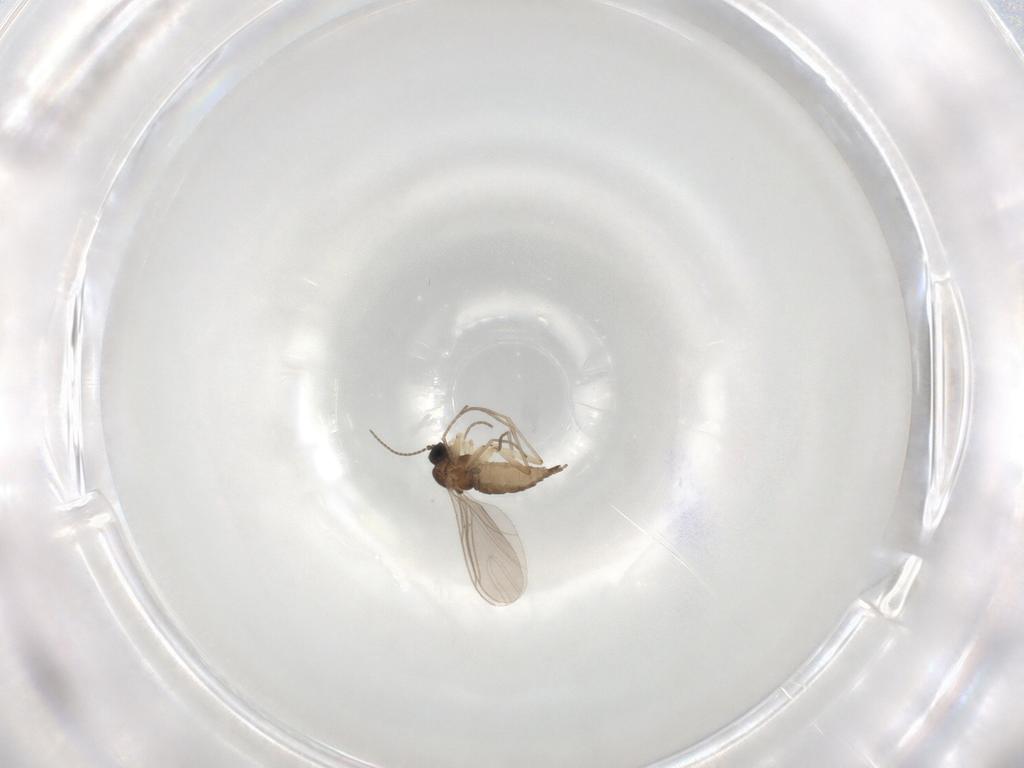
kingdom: Animalia
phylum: Arthropoda
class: Insecta
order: Diptera
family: Sciaridae
